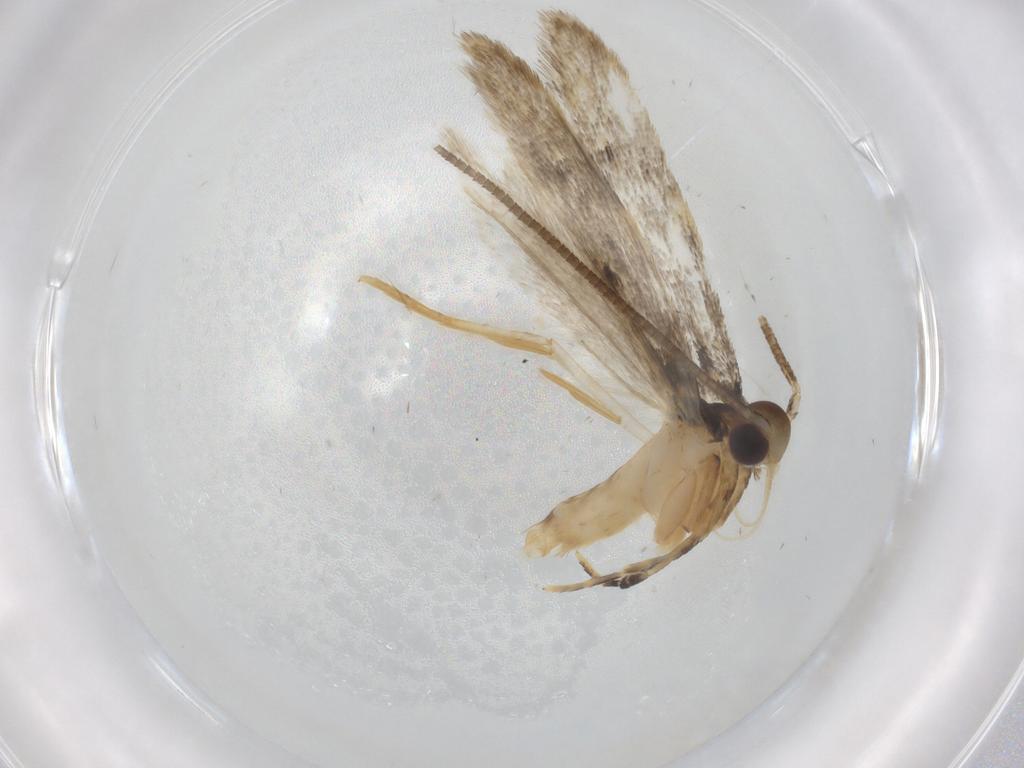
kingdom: Animalia
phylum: Arthropoda
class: Insecta
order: Lepidoptera
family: Autostichidae
